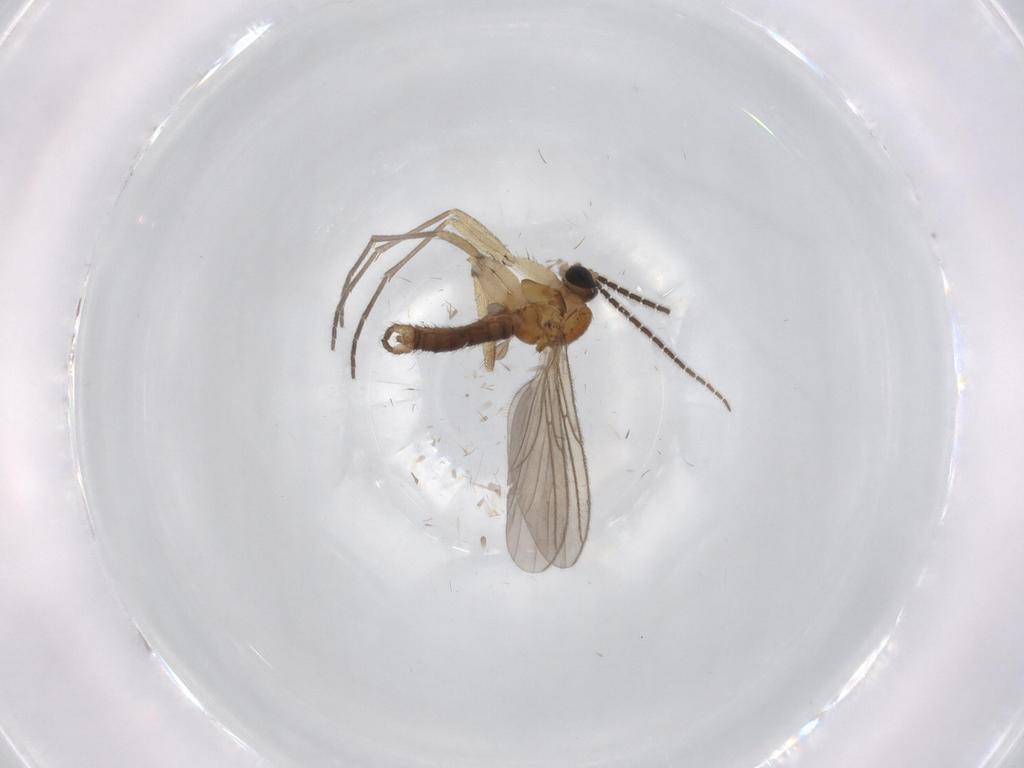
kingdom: Animalia
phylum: Arthropoda
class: Insecta
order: Diptera
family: Sciaridae
